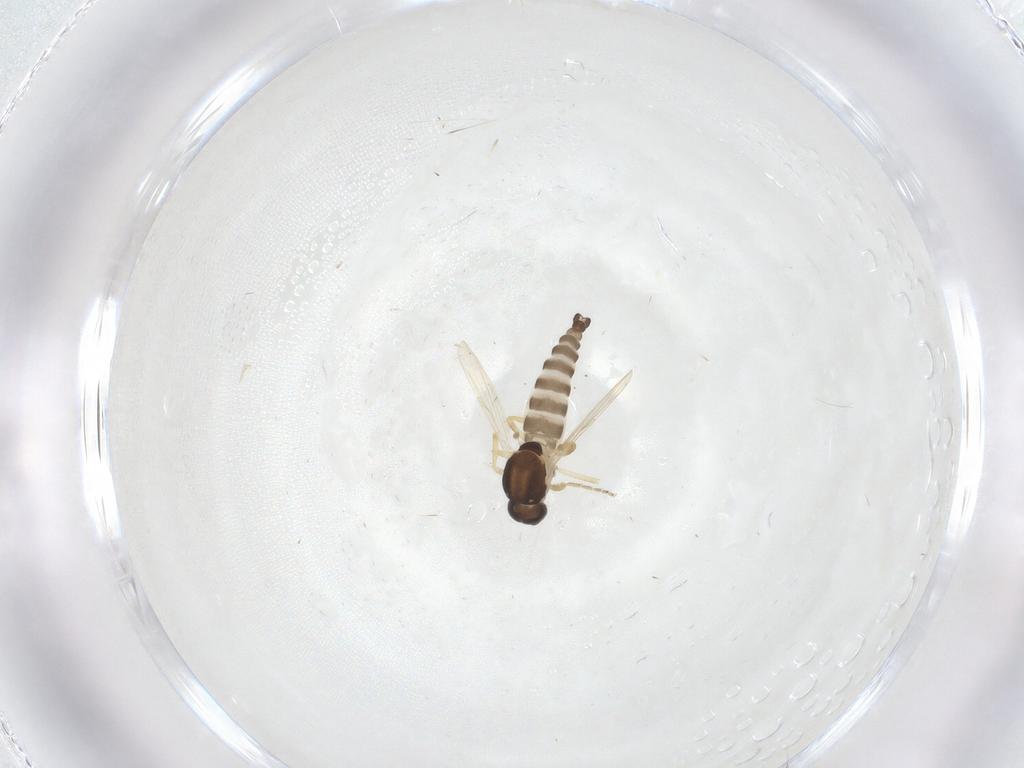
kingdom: Animalia
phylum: Arthropoda
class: Insecta
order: Diptera
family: Ceratopogonidae
